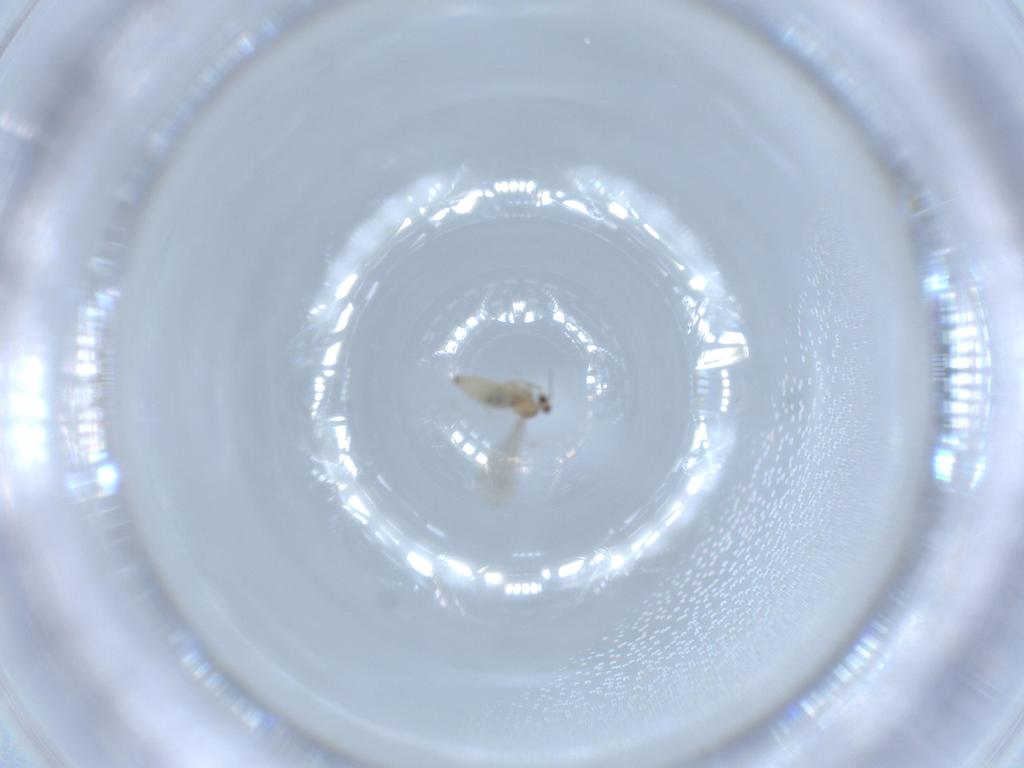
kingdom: Animalia
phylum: Arthropoda
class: Insecta
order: Diptera
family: Cecidomyiidae
